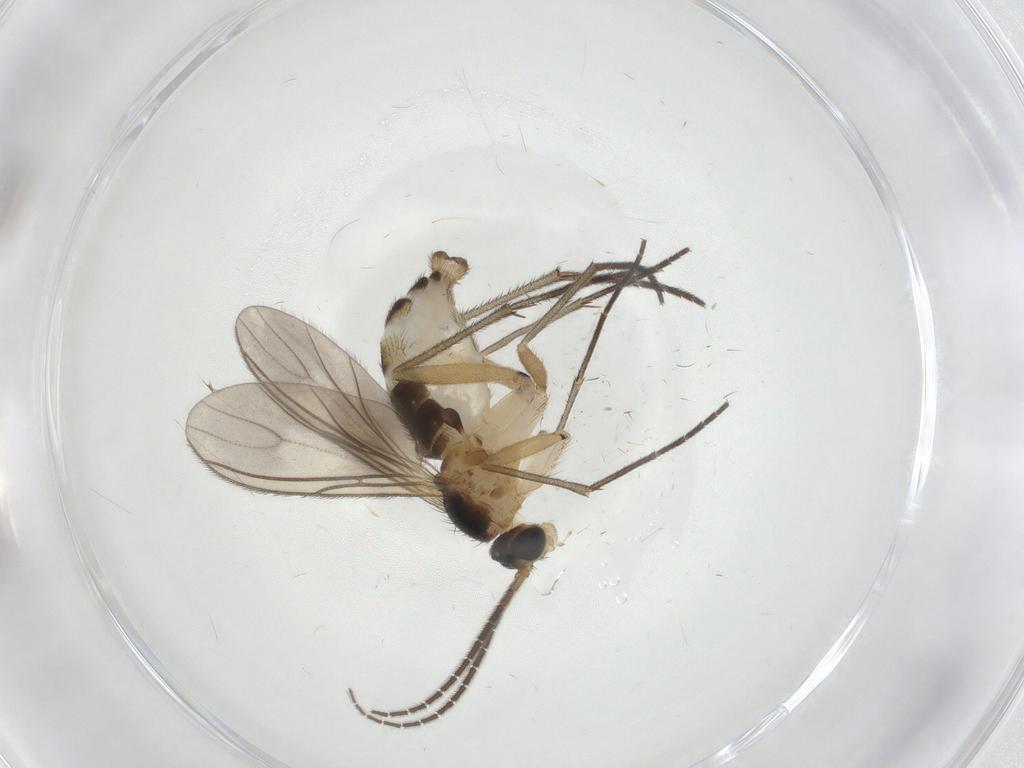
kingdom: Animalia
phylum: Arthropoda
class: Insecta
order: Diptera
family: Sciaridae
